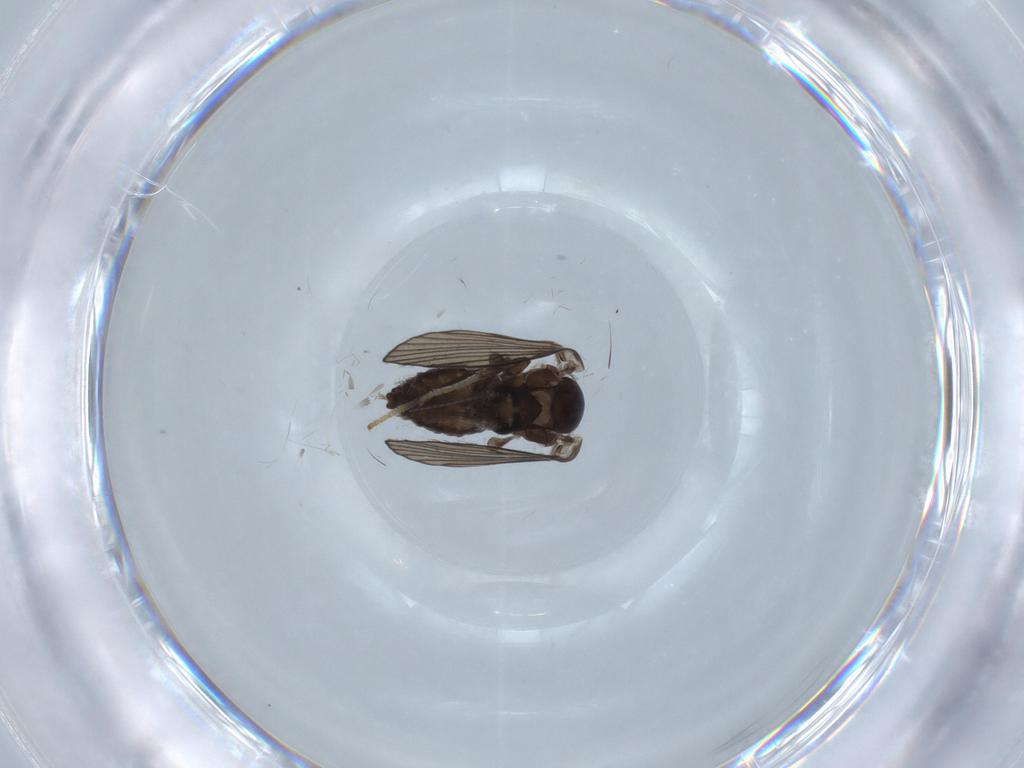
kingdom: Animalia
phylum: Arthropoda
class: Insecta
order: Diptera
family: Psychodidae
